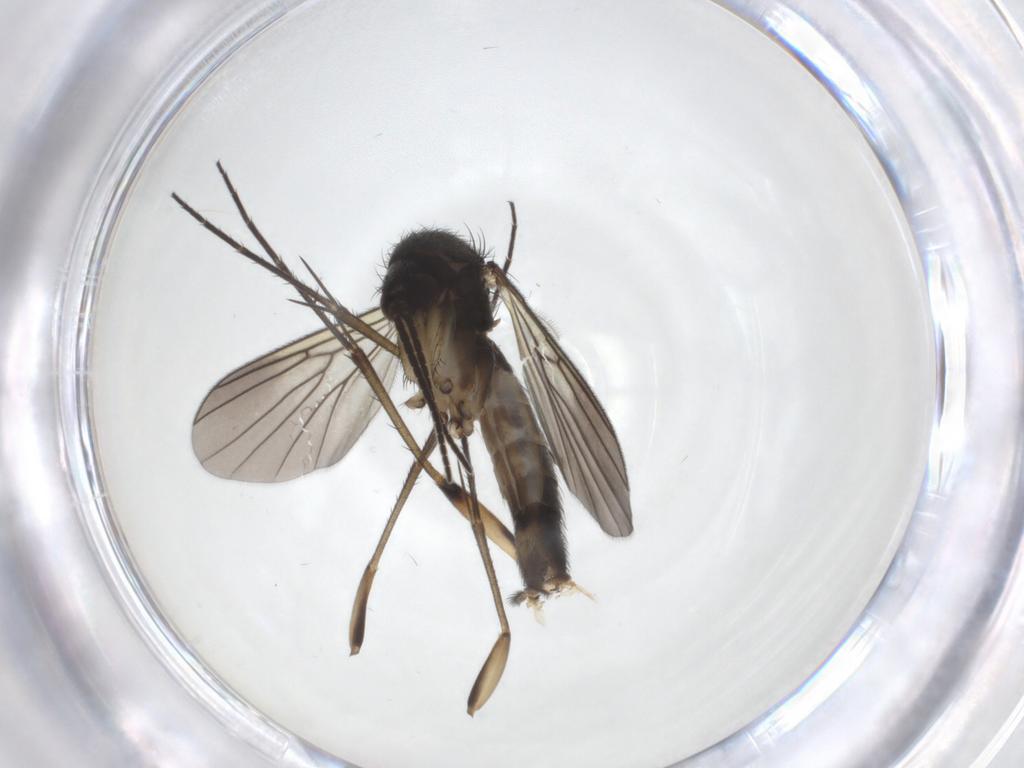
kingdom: Animalia
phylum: Arthropoda
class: Insecta
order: Diptera
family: Mycetophilidae
